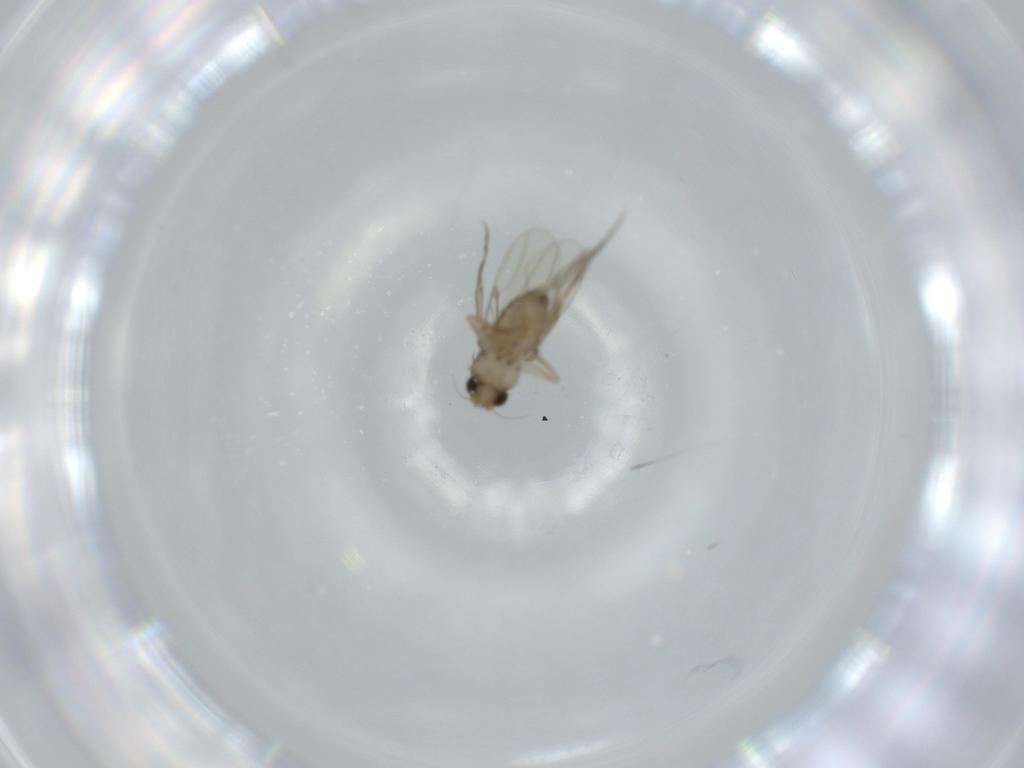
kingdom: Animalia
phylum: Arthropoda
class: Insecta
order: Diptera
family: Phoridae
